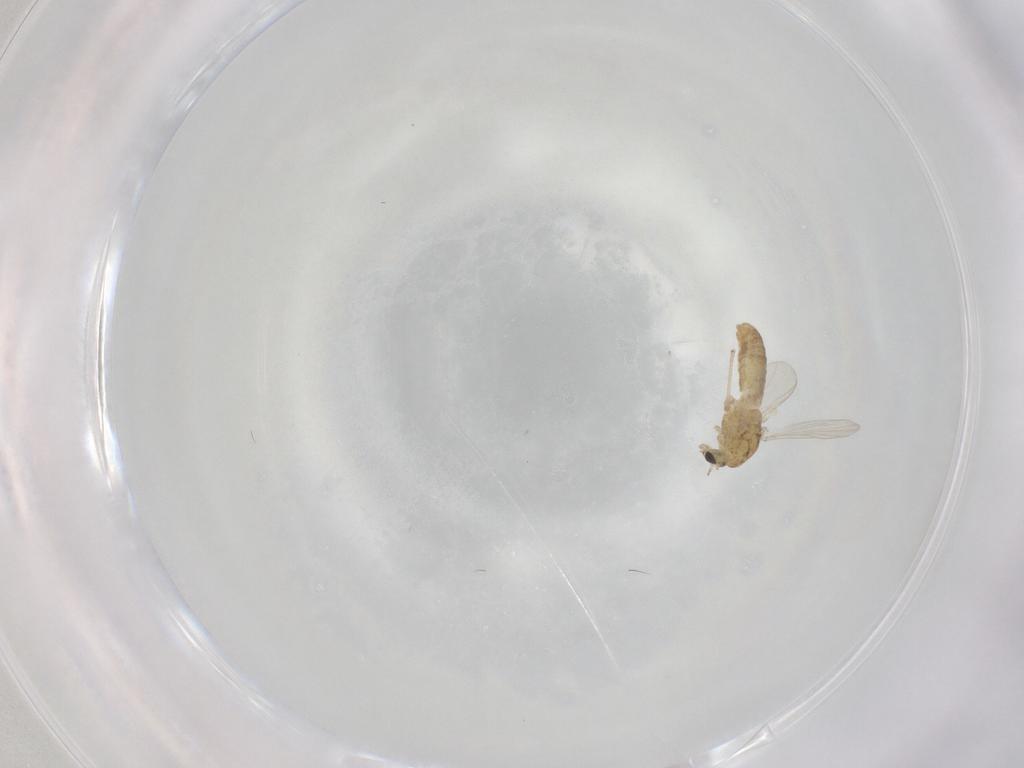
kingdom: Animalia
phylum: Arthropoda
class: Insecta
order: Diptera
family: Chironomidae
